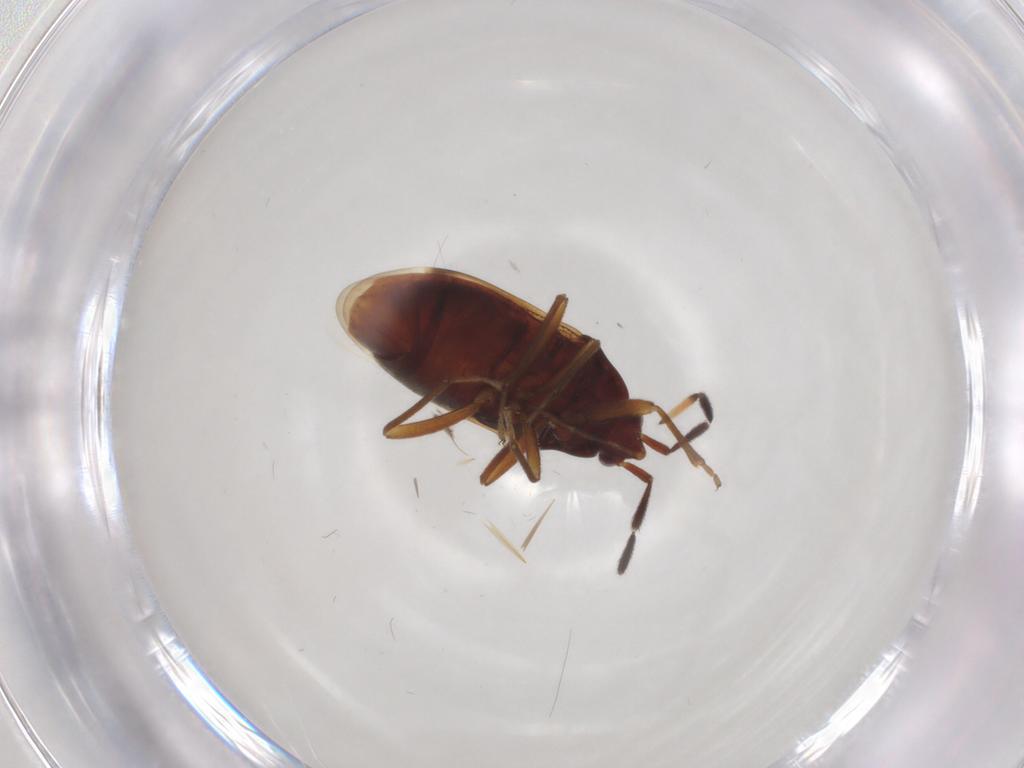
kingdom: Animalia
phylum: Arthropoda
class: Insecta
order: Hemiptera
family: Rhyparochromidae
